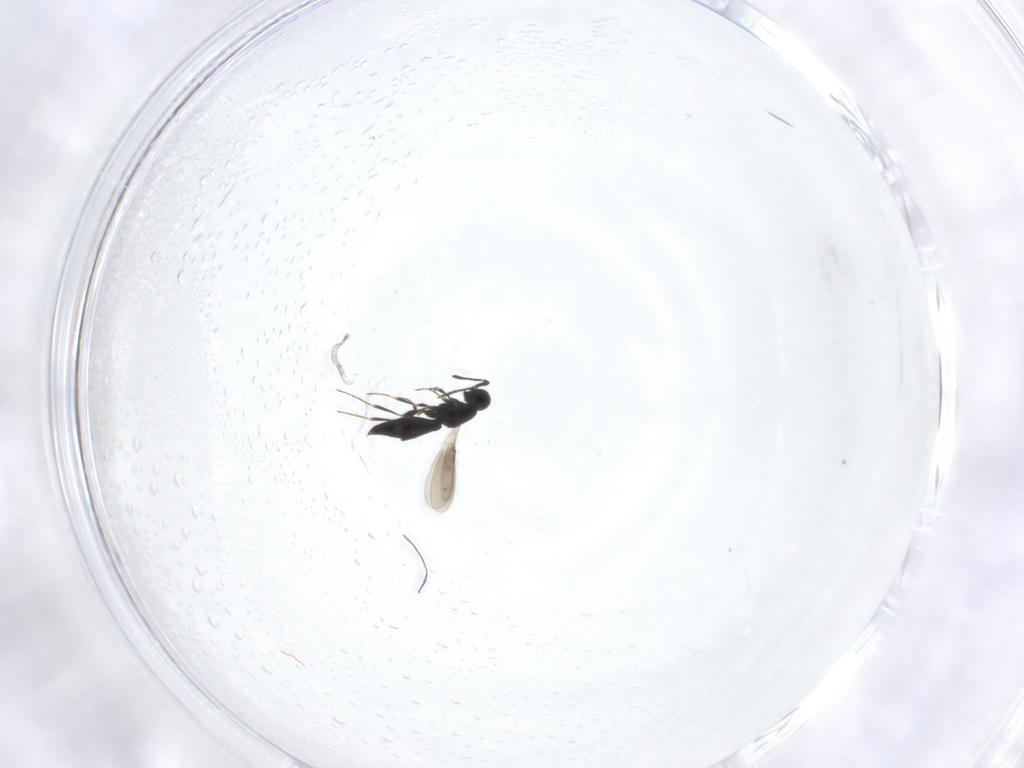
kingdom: Animalia
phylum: Arthropoda
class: Insecta
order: Hymenoptera
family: Scelionidae
